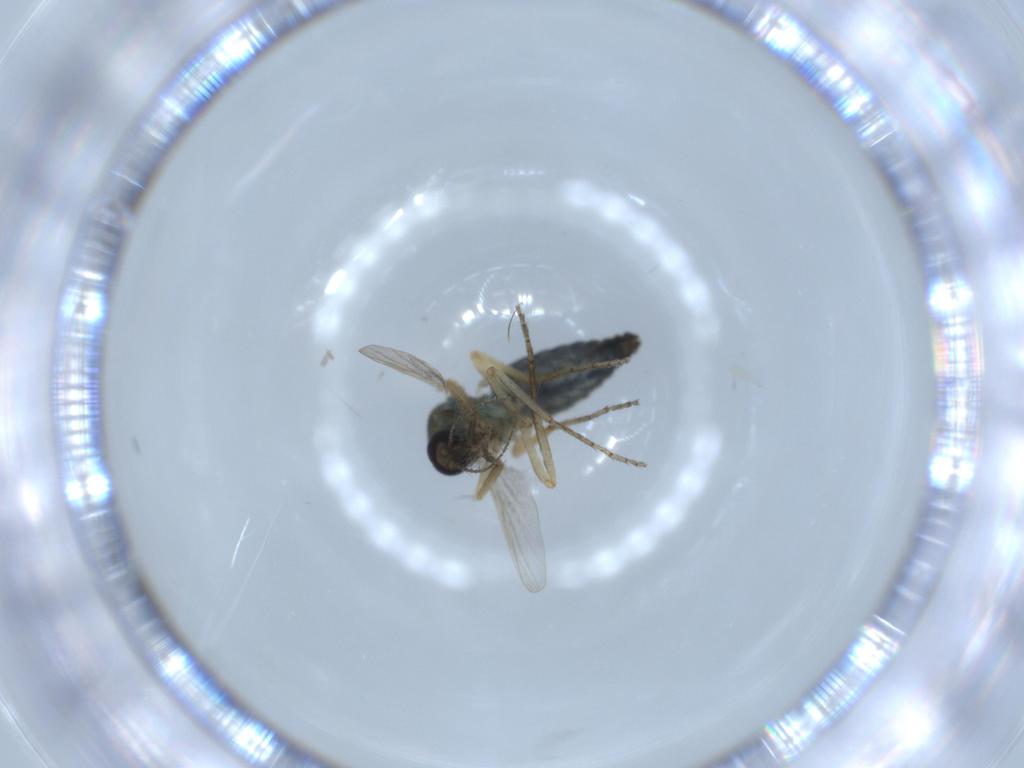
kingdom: Animalia
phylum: Arthropoda
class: Insecta
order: Diptera
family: Ceratopogonidae
